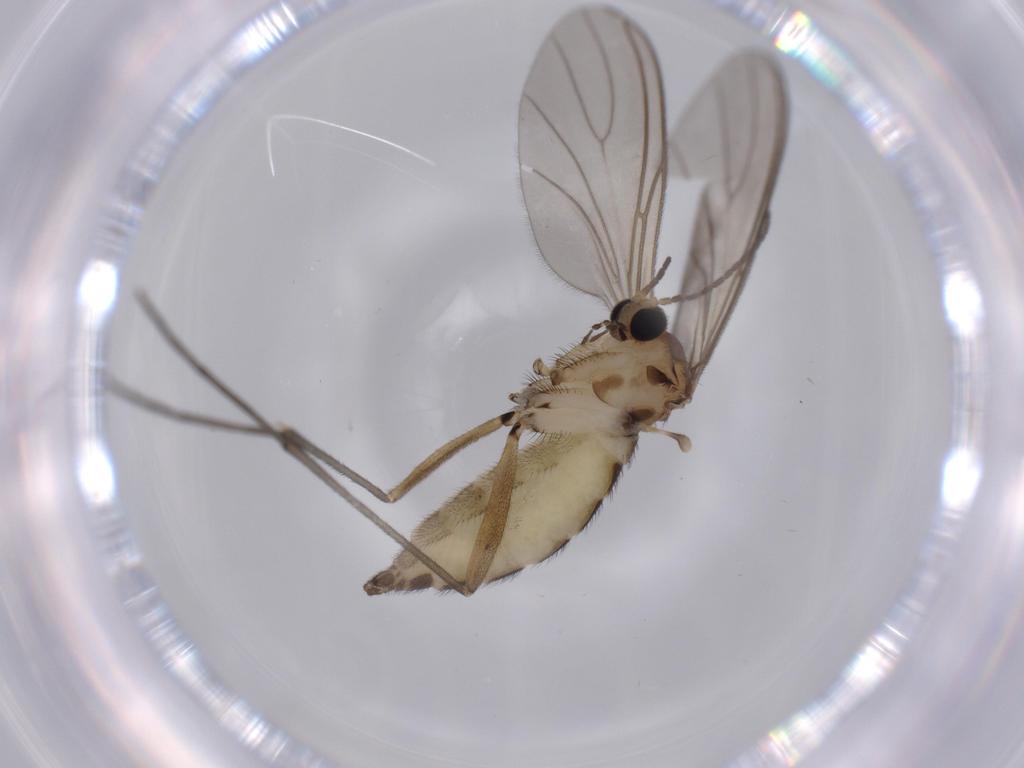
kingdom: Animalia
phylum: Arthropoda
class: Insecta
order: Diptera
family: Sciaridae
